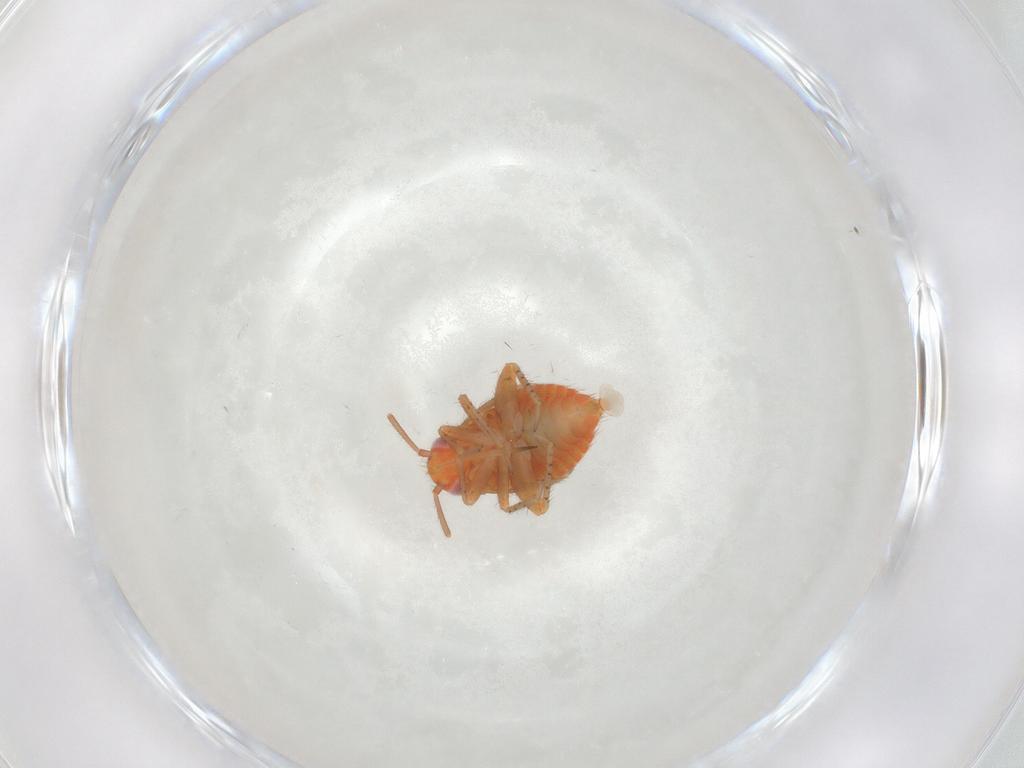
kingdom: Animalia
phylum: Arthropoda
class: Insecta
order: Hemiptera
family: Miridae
